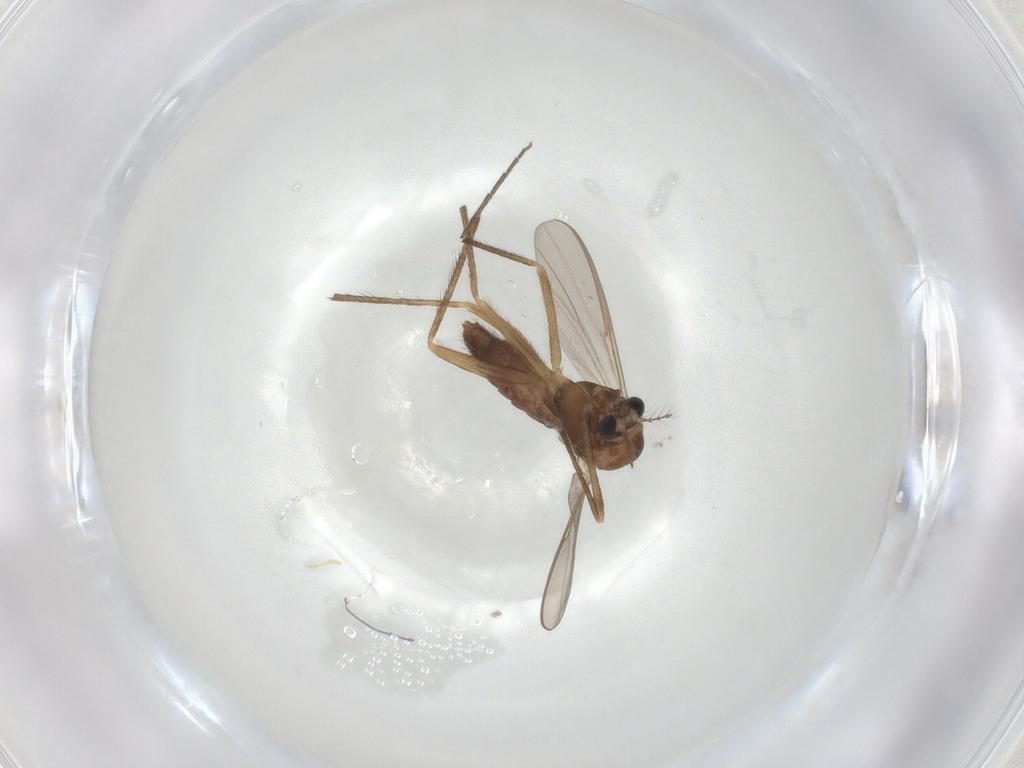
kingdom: Animalia
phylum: Arthropoda
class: Insecta
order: Diptera
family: Chironomidae
